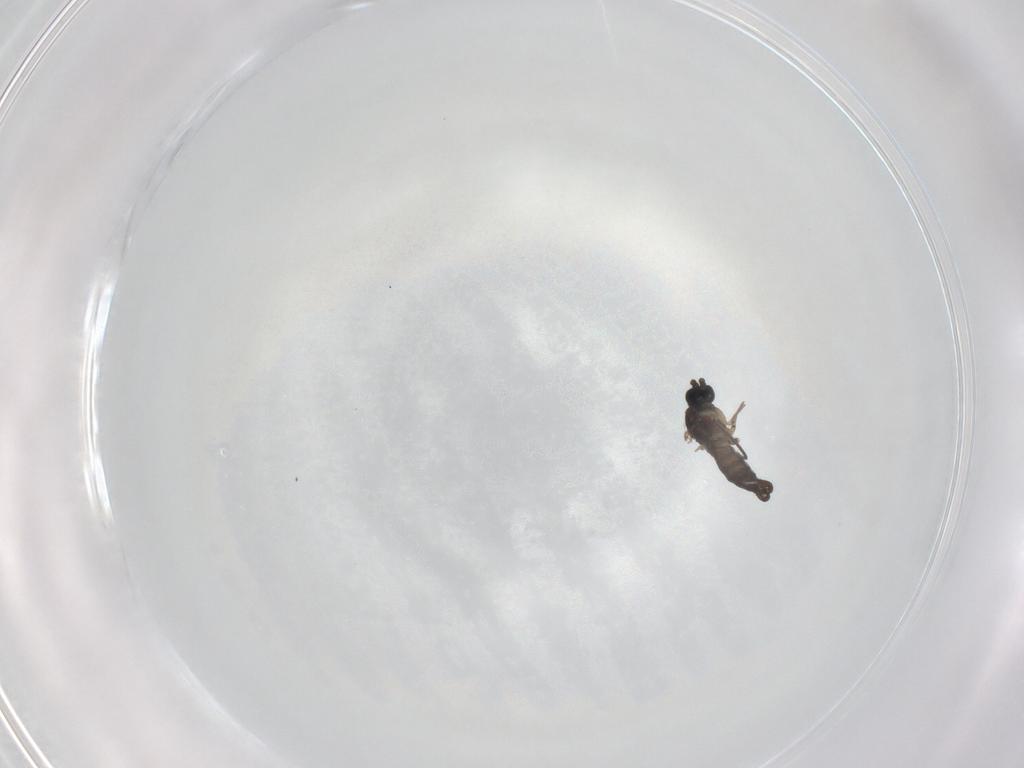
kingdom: Animalia
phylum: Arthropoda
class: Insecta
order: Diptera
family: Sciaridae
